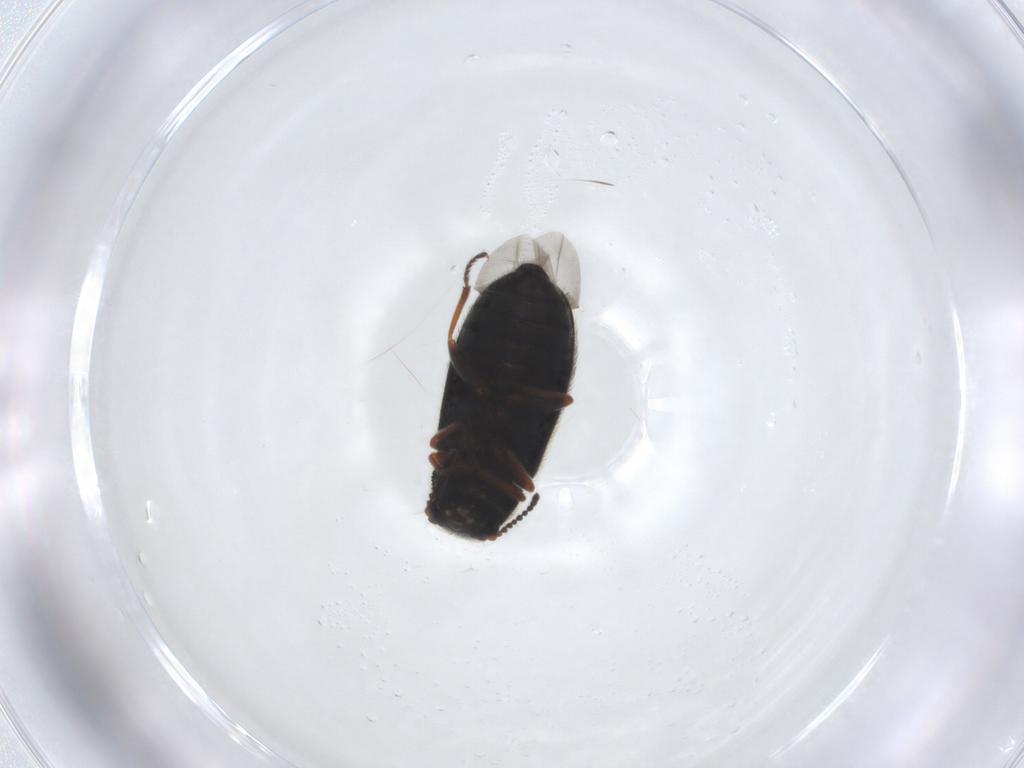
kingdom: Animalia
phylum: Arthropoda
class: Insecta
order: Coleoptera
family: Melyridae
